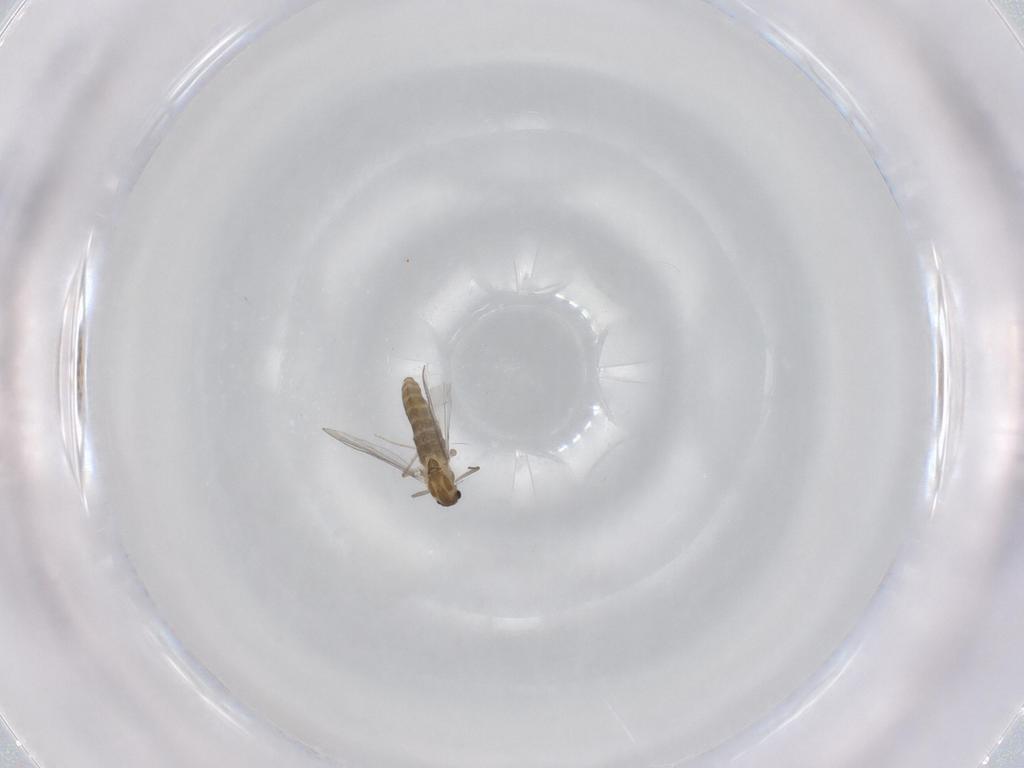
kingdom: Animalia
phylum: Arthropoda
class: Insecta
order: Diptera
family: Chironomidae
